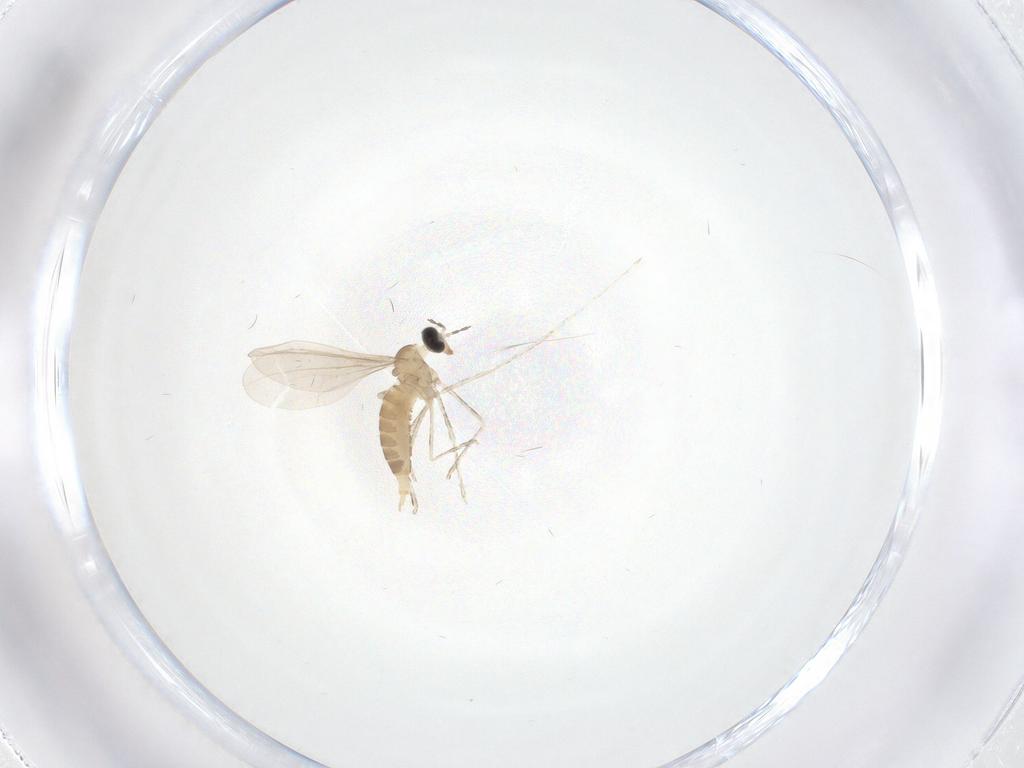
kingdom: Animalia
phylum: Arthropoda
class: Insecta
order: Diptera
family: Cecidomyiidae
